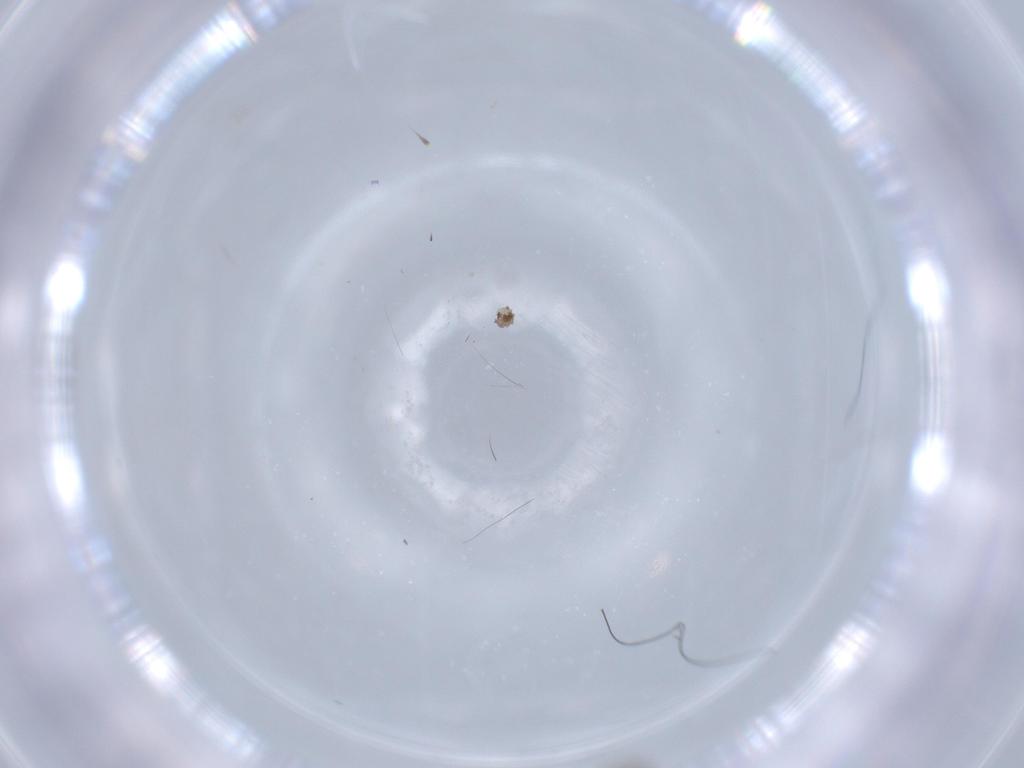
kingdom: Animalia
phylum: Arthropoda
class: Insecta
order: Diptera
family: Cecidomyiidae
